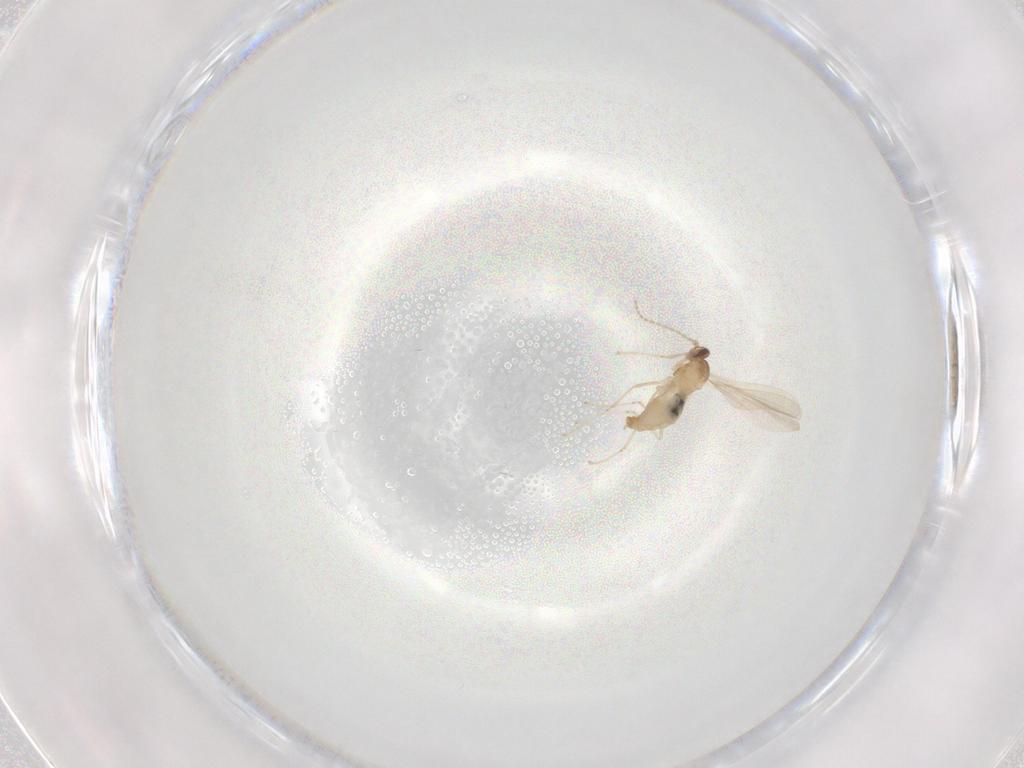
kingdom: Animalia
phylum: Arthropoda
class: Insecta
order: Diptera
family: Cecidomyiidae
